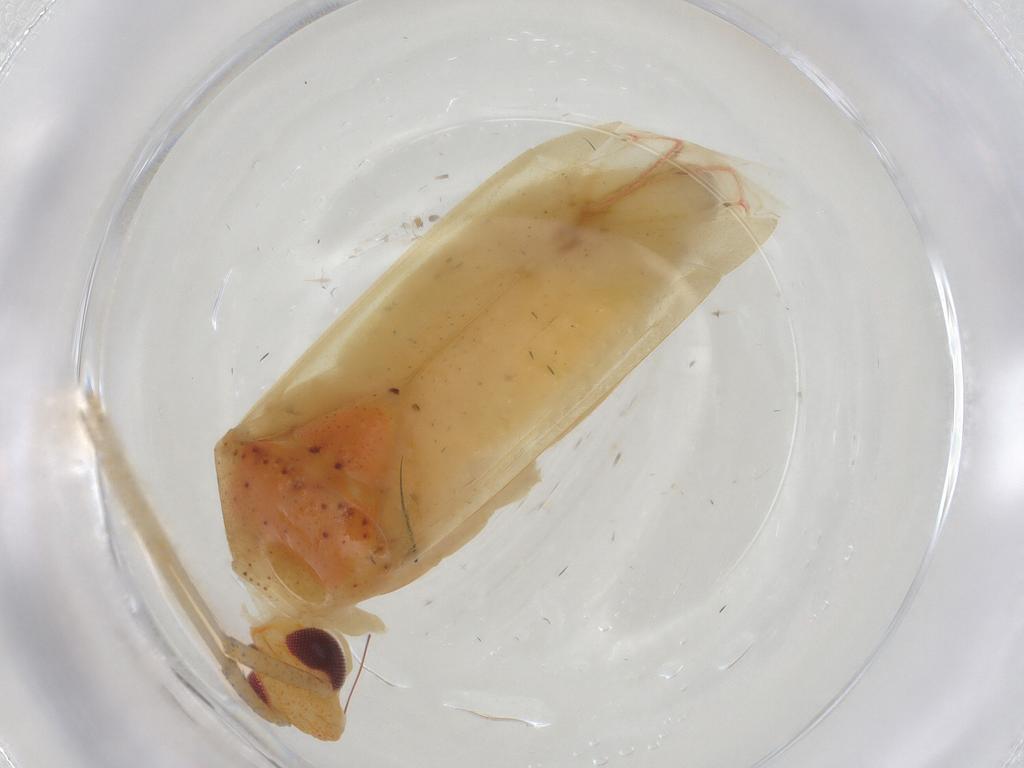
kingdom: Animalia
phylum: Arthropoda
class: Insecta
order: Hemiptera
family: Miridae
